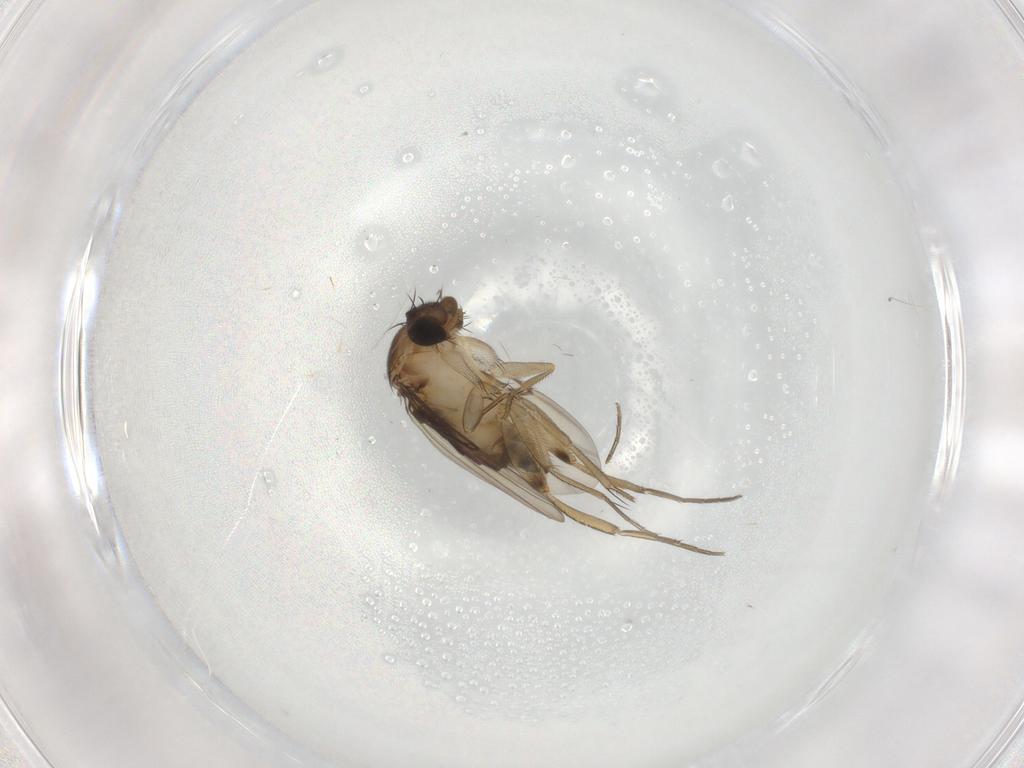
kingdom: Animalia
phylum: Arthropoda
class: Insecta
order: Diptera
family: Phoridae
